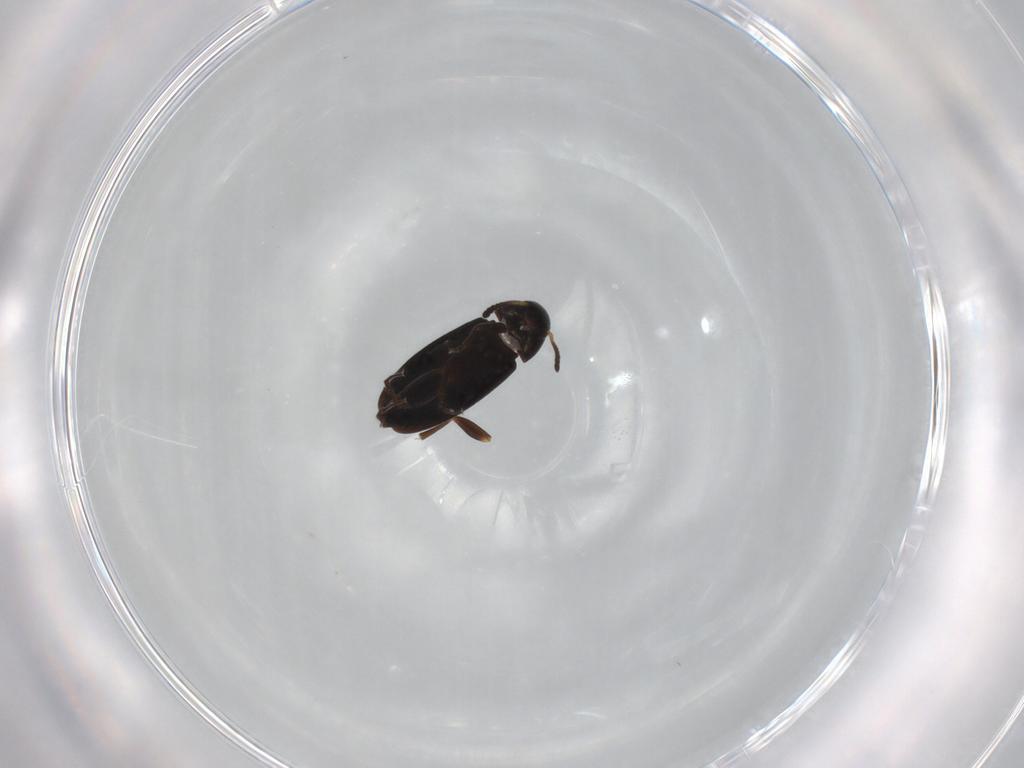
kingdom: Animalia
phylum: Arthropoda
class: Insecta
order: Coleoptera
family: Scraptiidae
